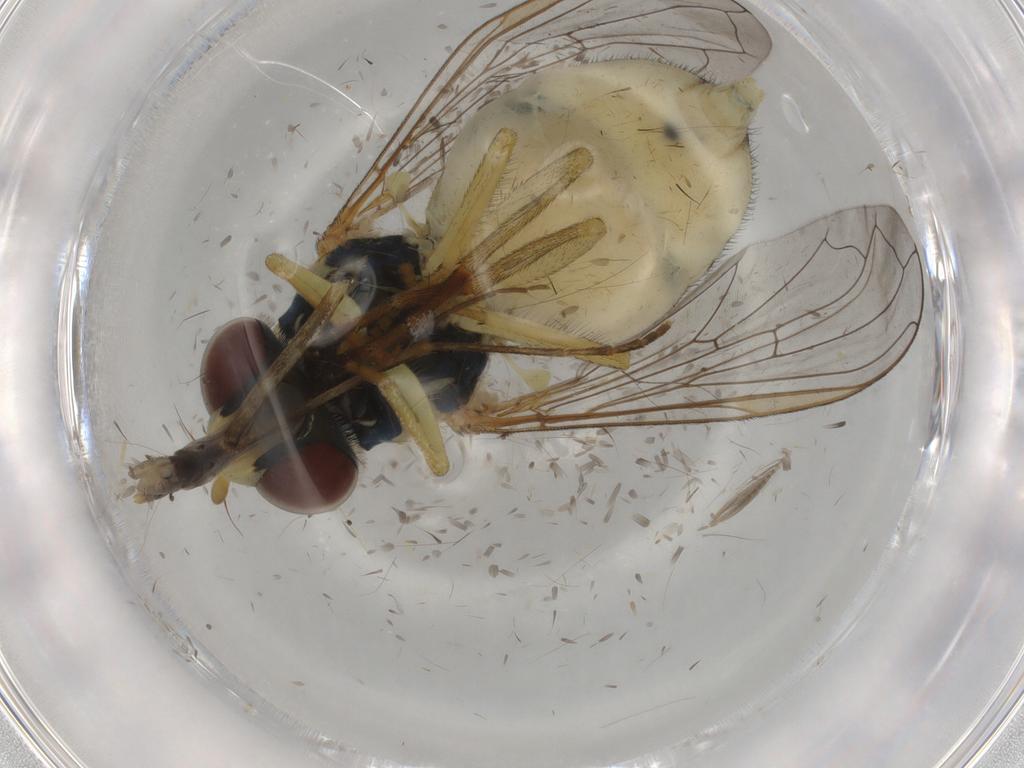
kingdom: Animalia
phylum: Arthropoda
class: Insecta
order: Diptera
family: Syrphidae
